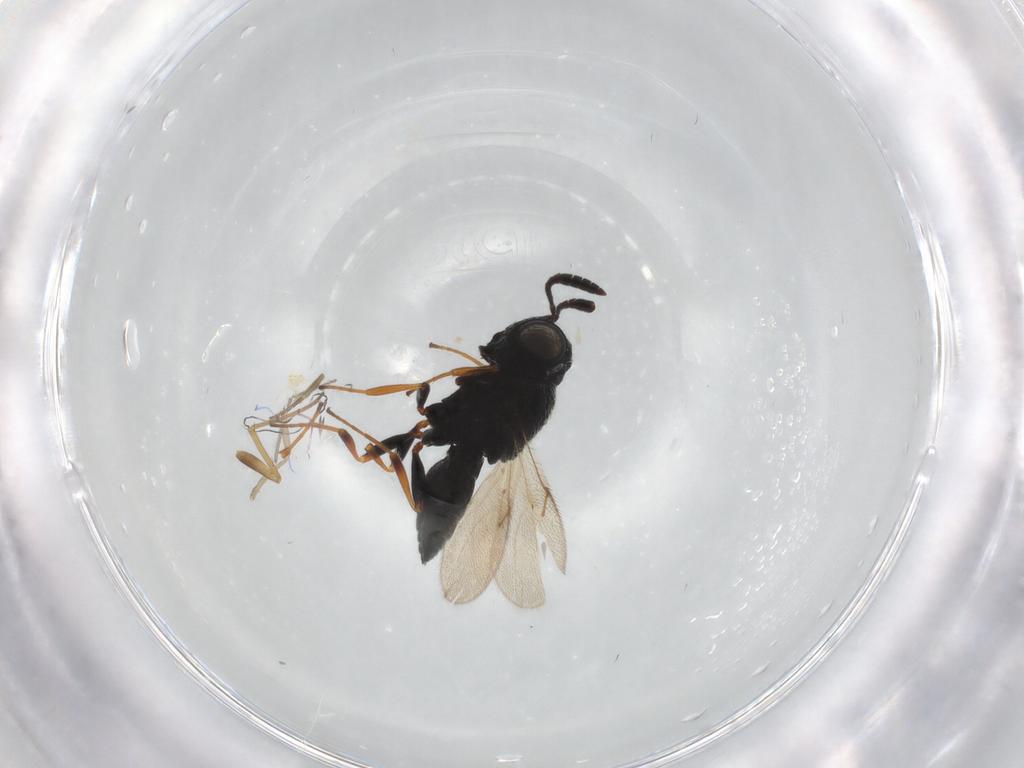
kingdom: Animalia
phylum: Arthropoda
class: Insecta
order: Hymenoptera
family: Scelionidae
